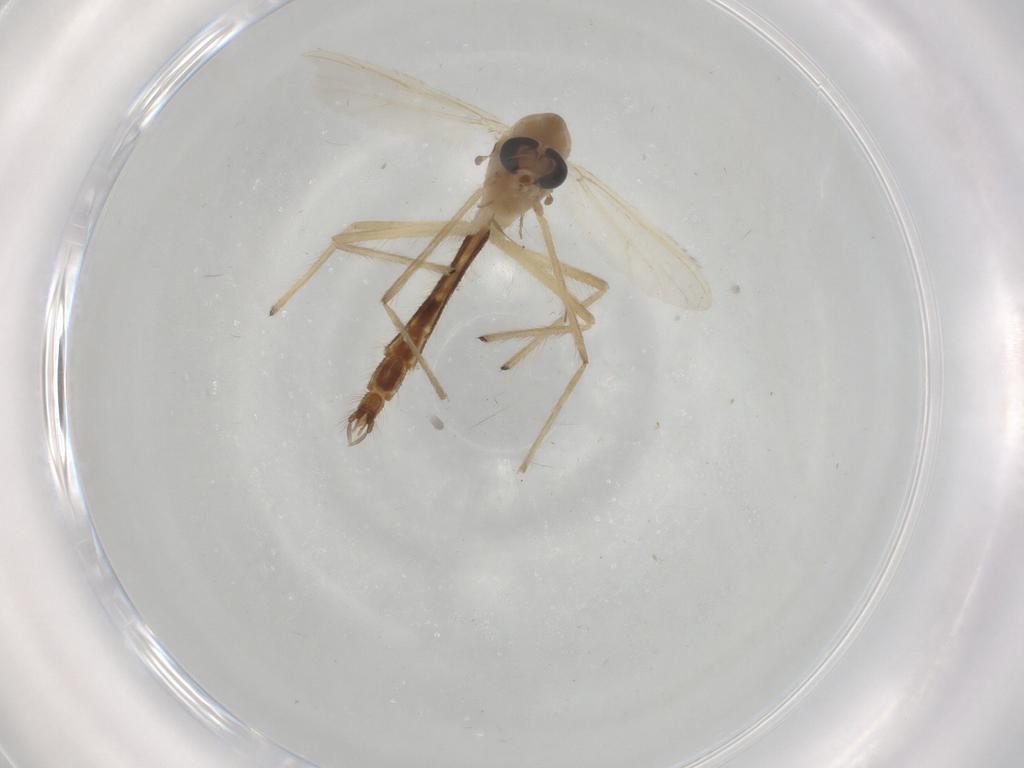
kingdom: Animalia
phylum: Arthropoda
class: Insecta
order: Diptera
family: Chironomidae
